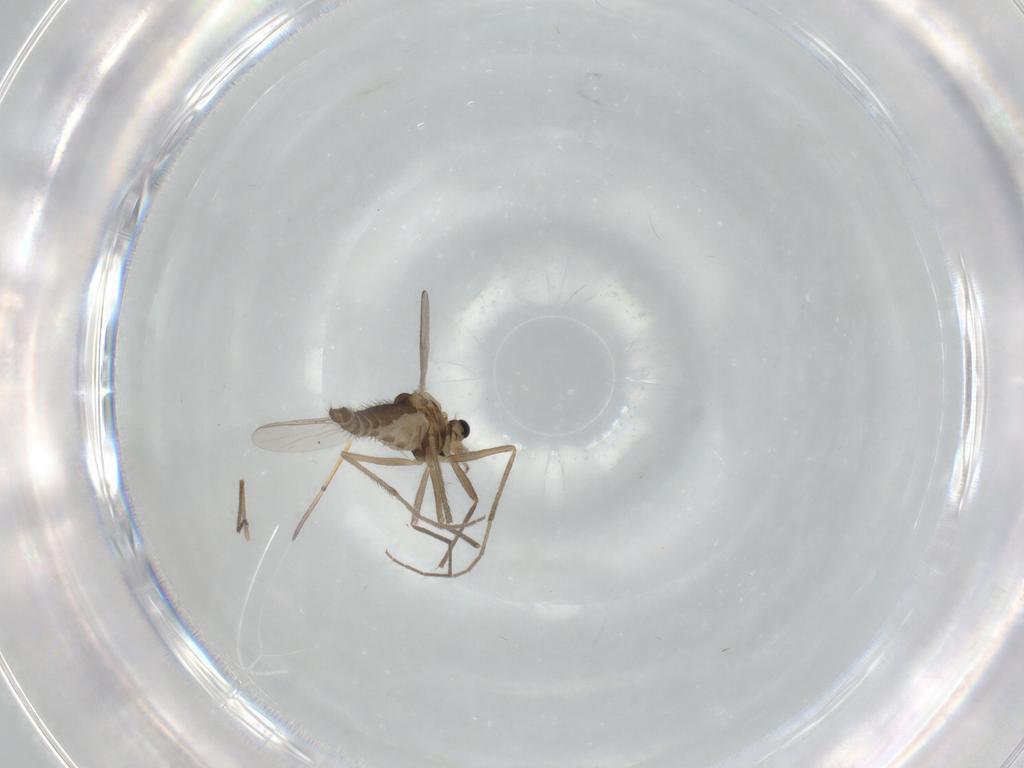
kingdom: Animalia
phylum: Arthropoda
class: Insecta
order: Diptera
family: Chironomidae
